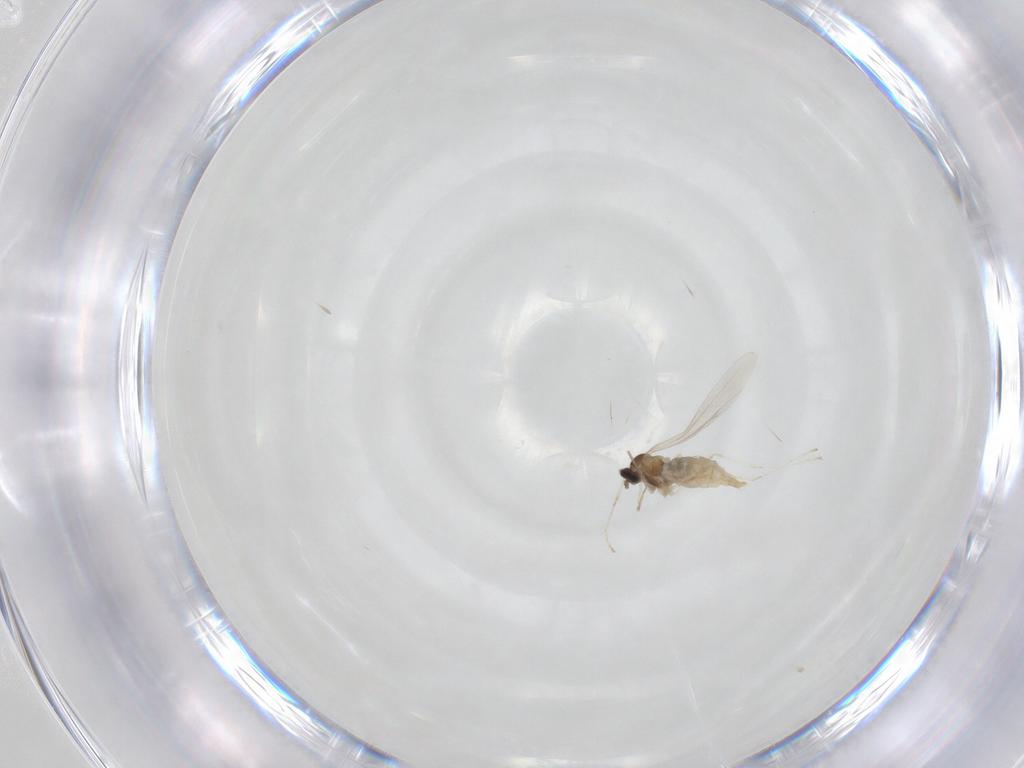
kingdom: Animalia
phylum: Arthropoda
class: Insecta
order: Diptera
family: Cecidomyiidae
